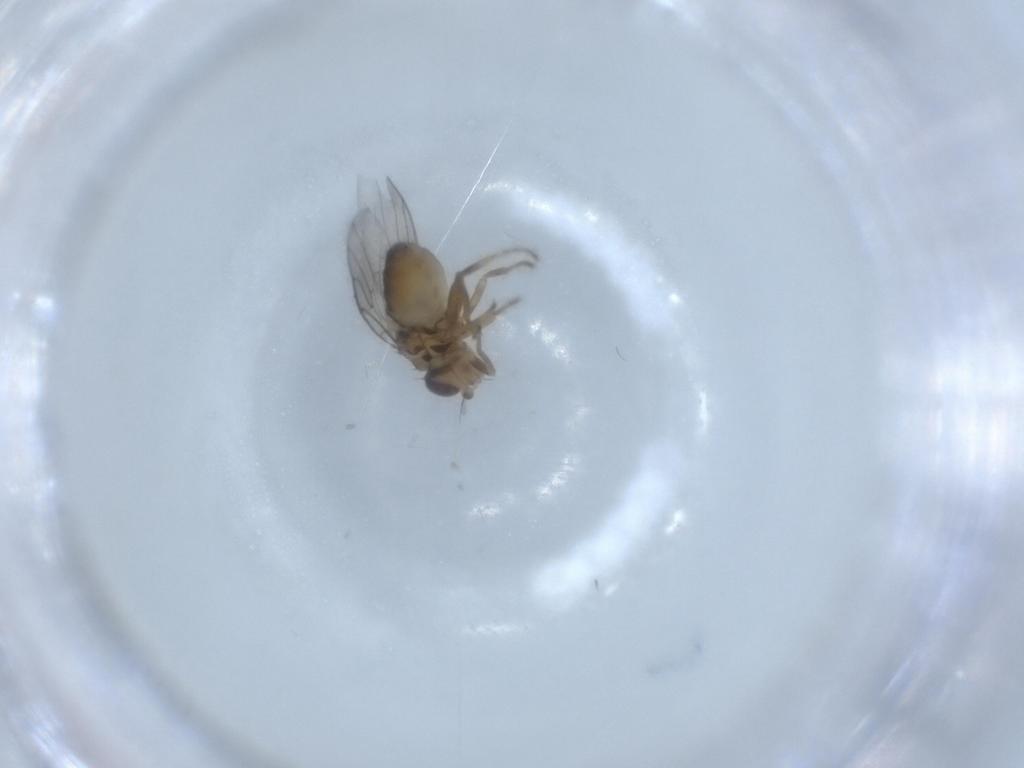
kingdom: Animalia
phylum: Arthropoda
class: Insecta
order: Diptera
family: Chloropidae
